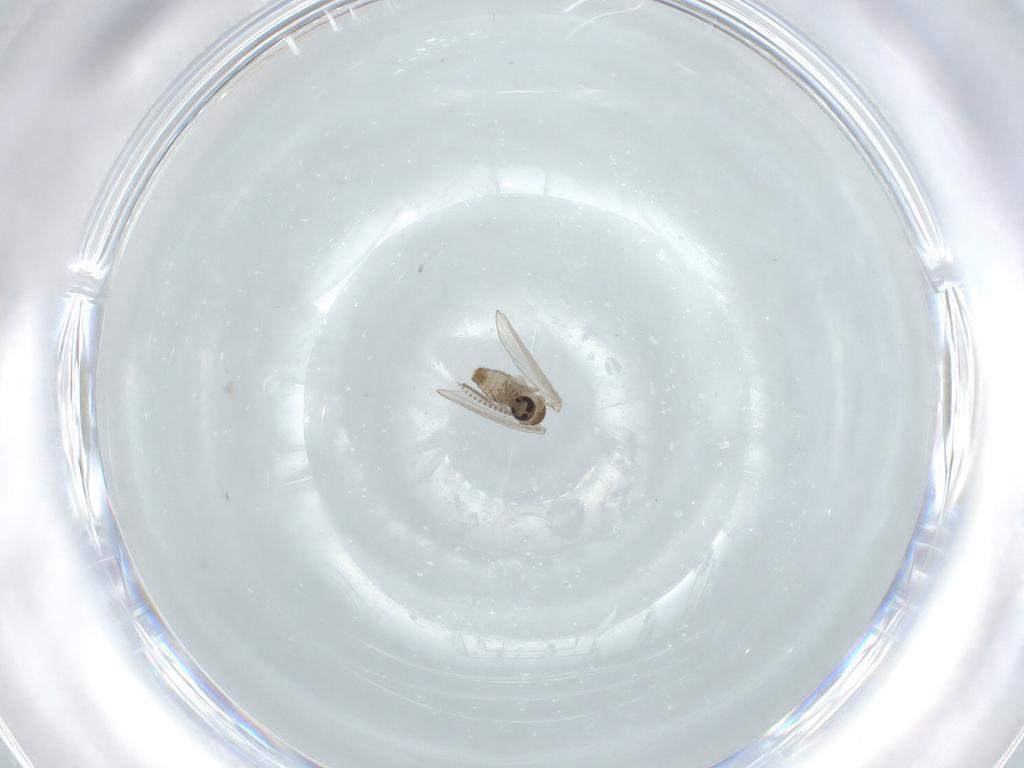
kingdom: Animalia
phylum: Arthropoda
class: Insecta
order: Diptera
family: Psychodidae
